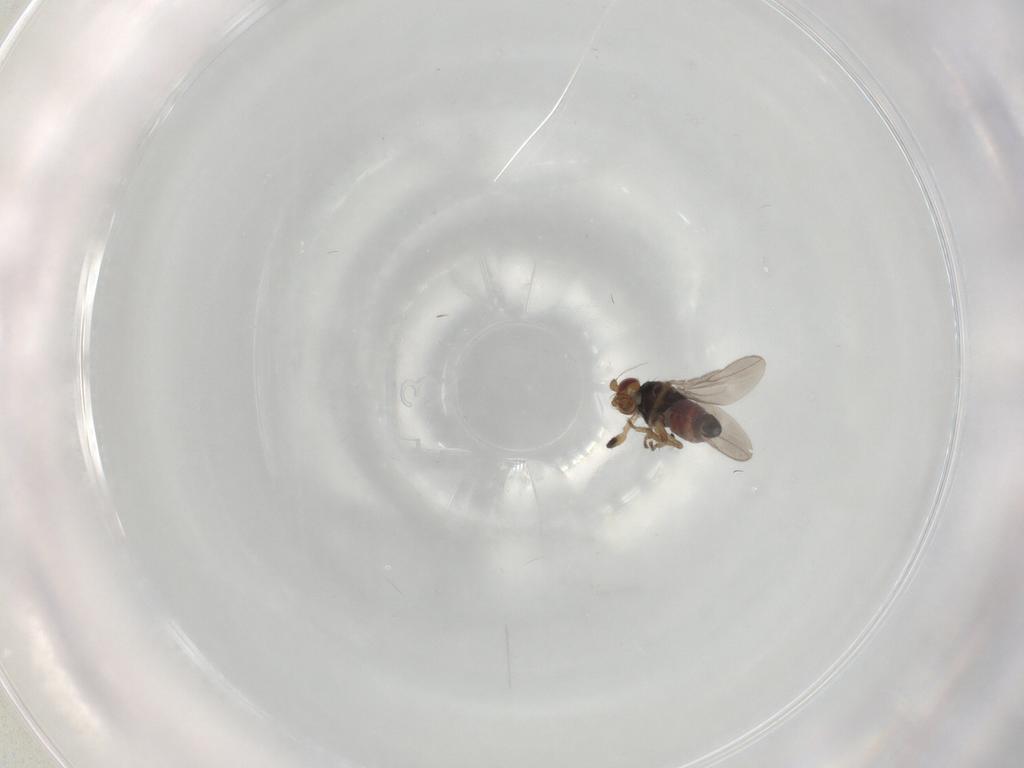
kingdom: Animalia
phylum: Arthropoda
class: Insecta
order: Diptera
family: Sphaeroceridae
